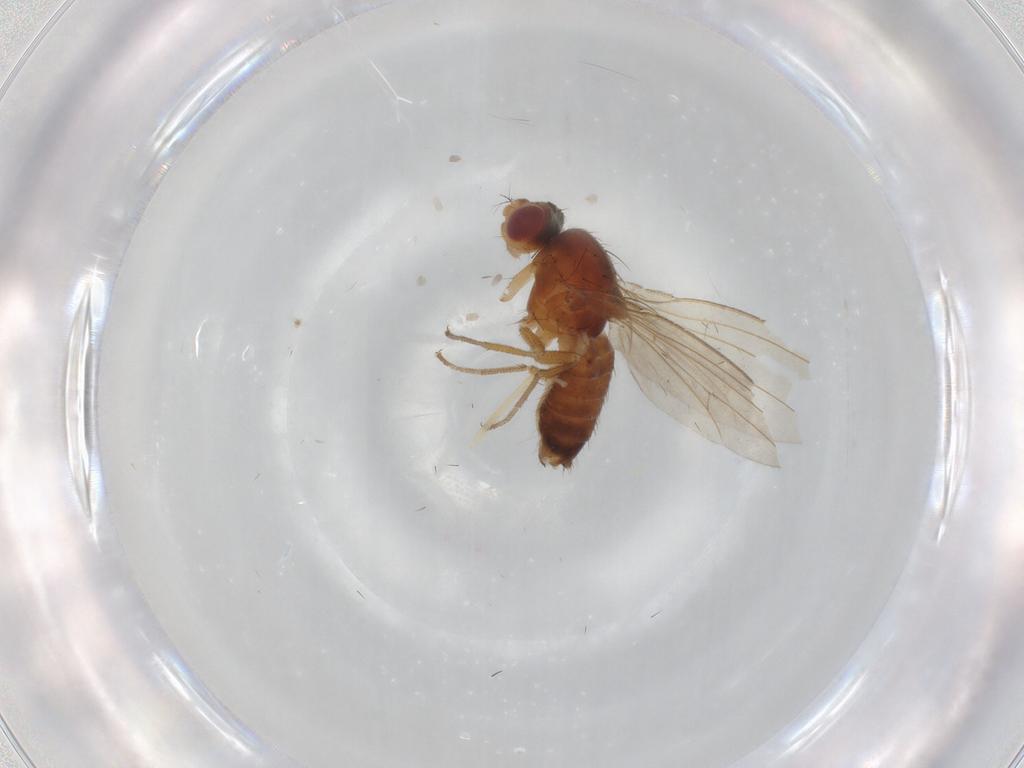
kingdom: Animalia
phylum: Arthropoda
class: Insecta
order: Diptera
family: Drosophilidae
